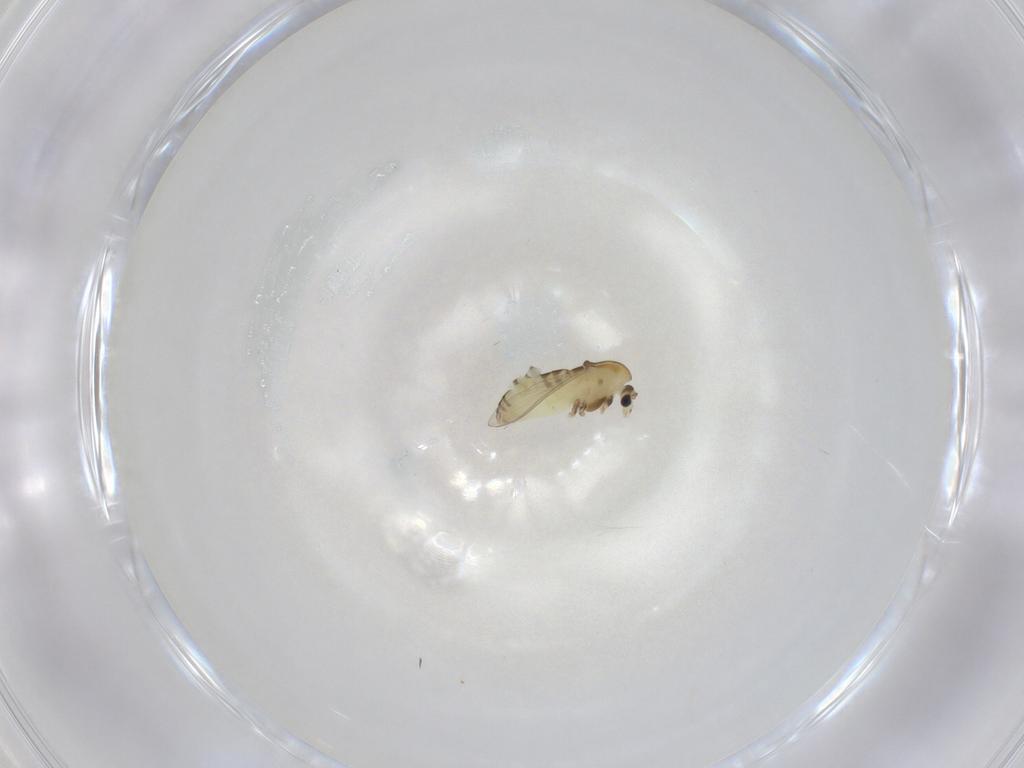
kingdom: Animalia
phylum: Arthropoda
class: Insecta
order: Diptera
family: Chironomidae
